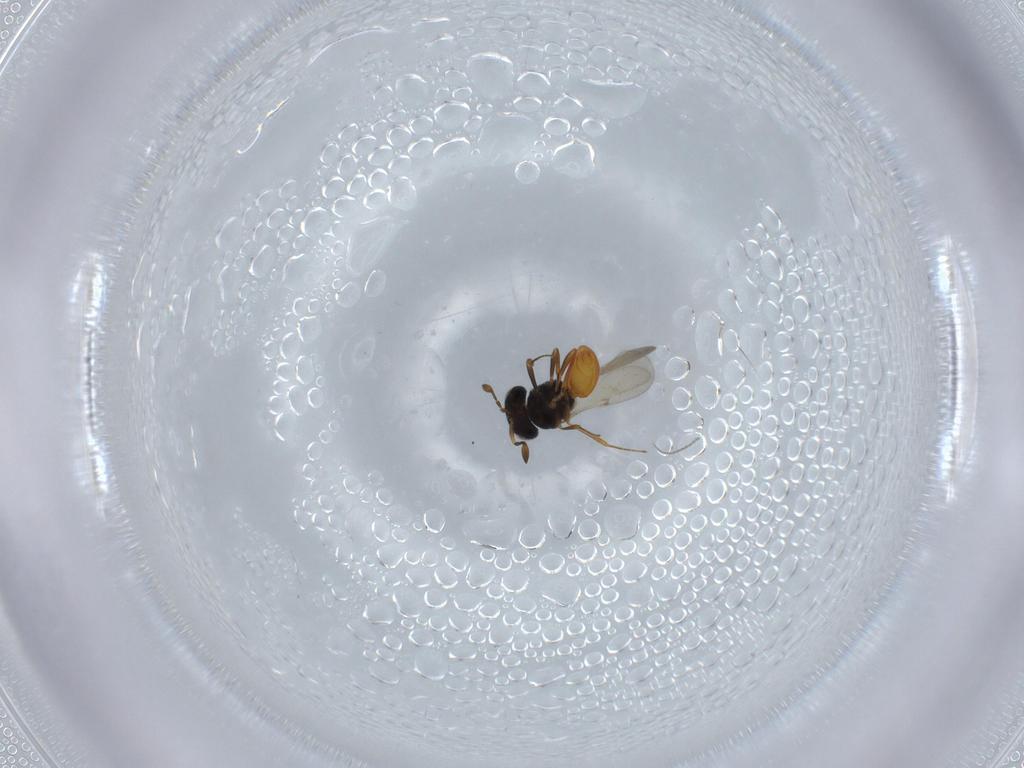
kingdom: Animalia
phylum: Arthropoda
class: Insecta
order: Hymenoptera
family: Scelionidae
